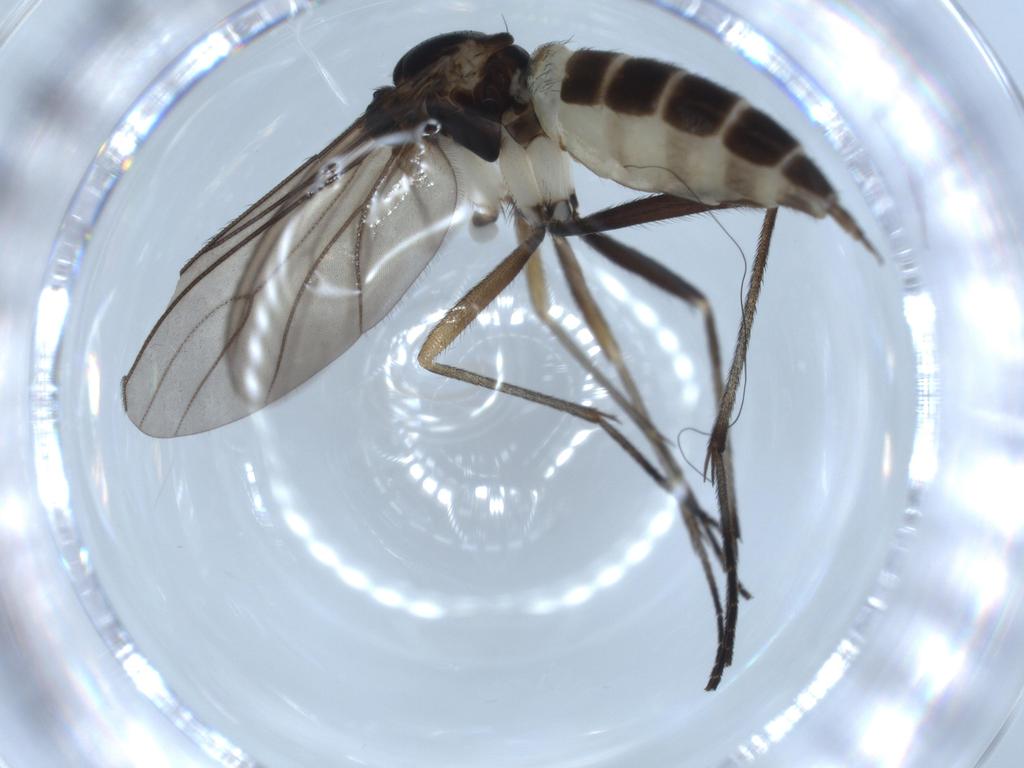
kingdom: Animalia
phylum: Arthropoda
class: Insecta
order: Diptera
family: Sciaridae
